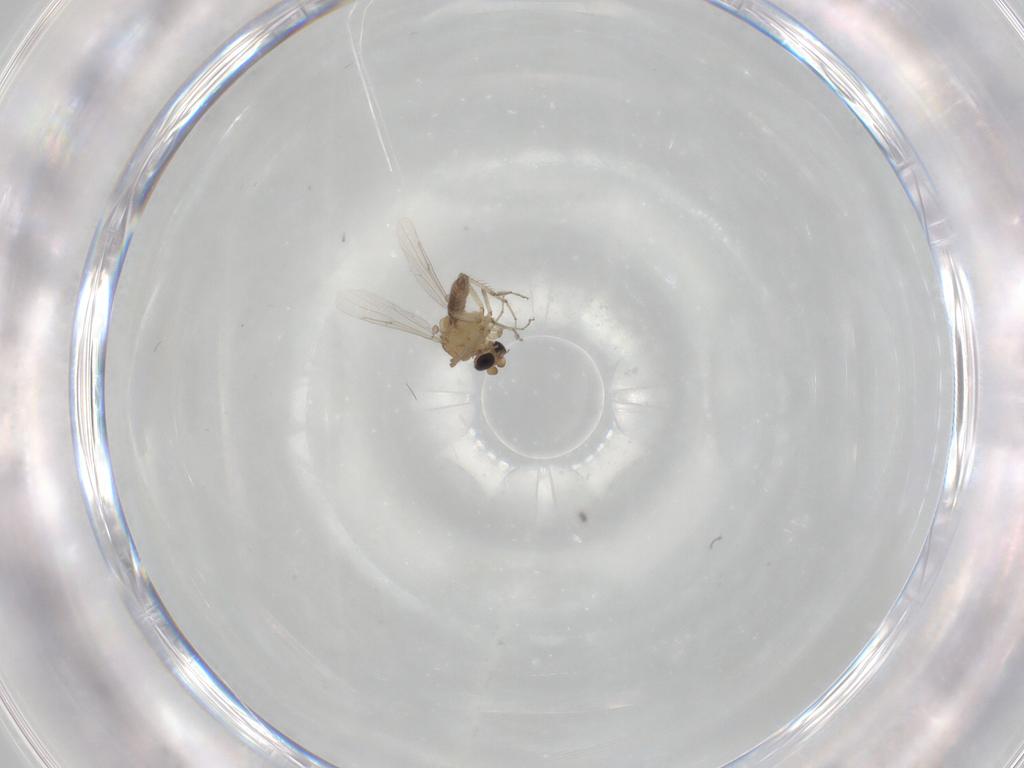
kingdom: Animalia
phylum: Arthropoda
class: Insecta
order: Diptera
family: Ceratopogonidae
